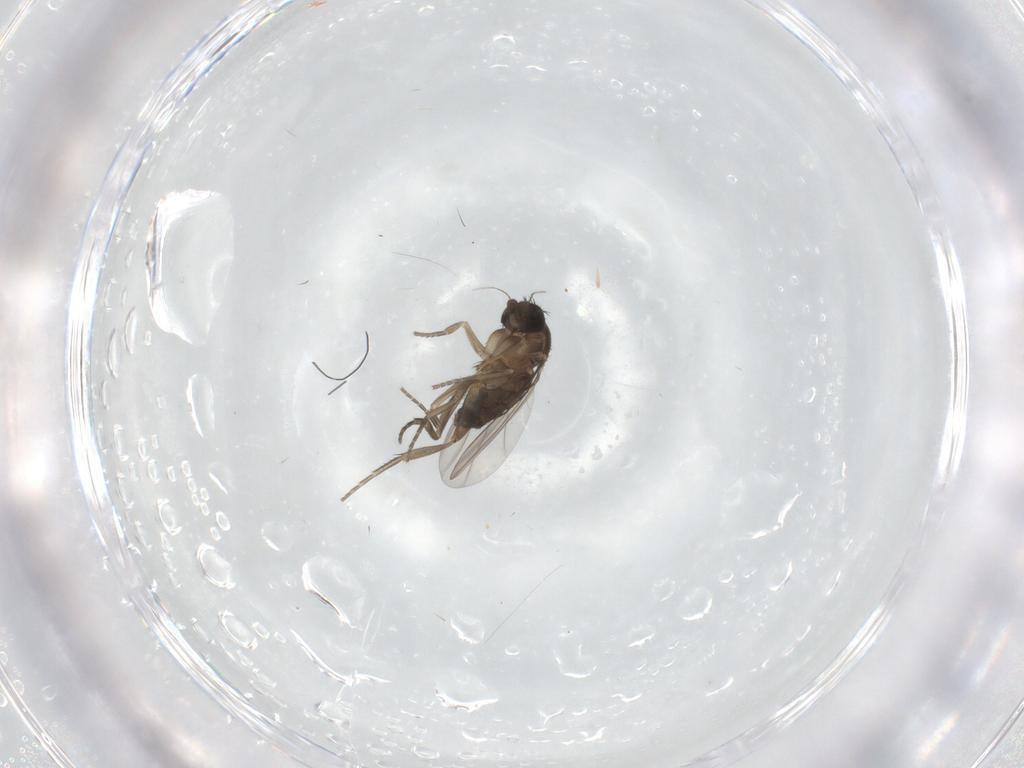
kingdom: Animalia
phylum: Arthropoda
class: Insecta
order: Diptera
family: Phoridae
